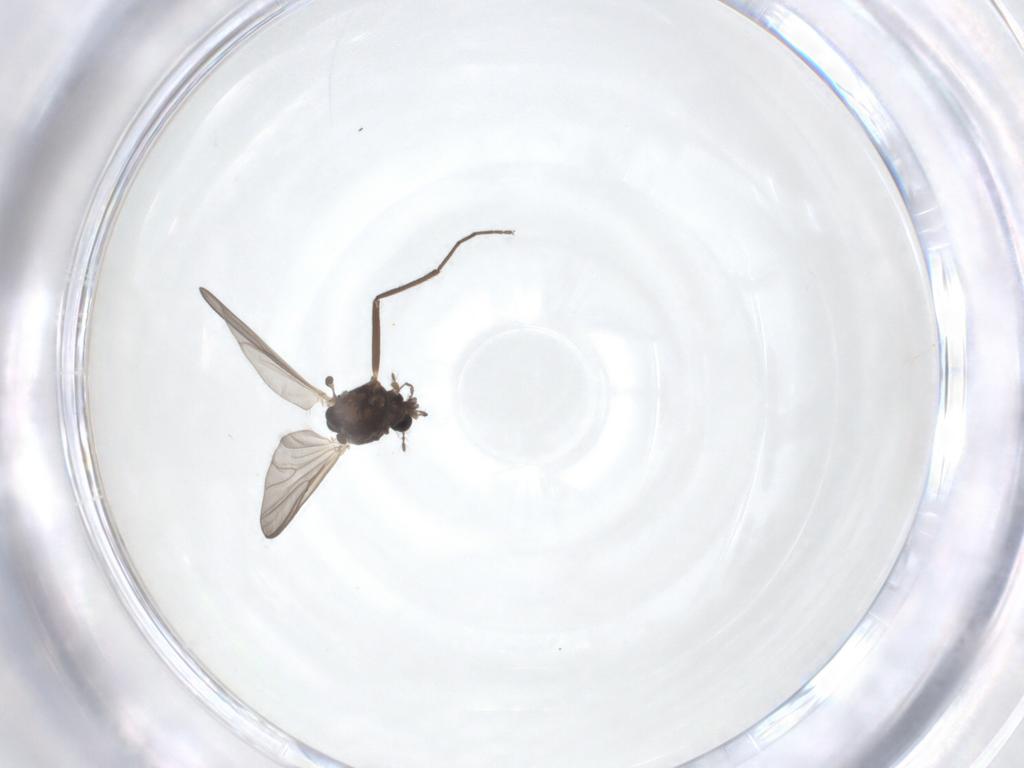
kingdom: Animalia
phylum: Arthropoda
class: Insecta
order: Diptera
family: Chironomidae
